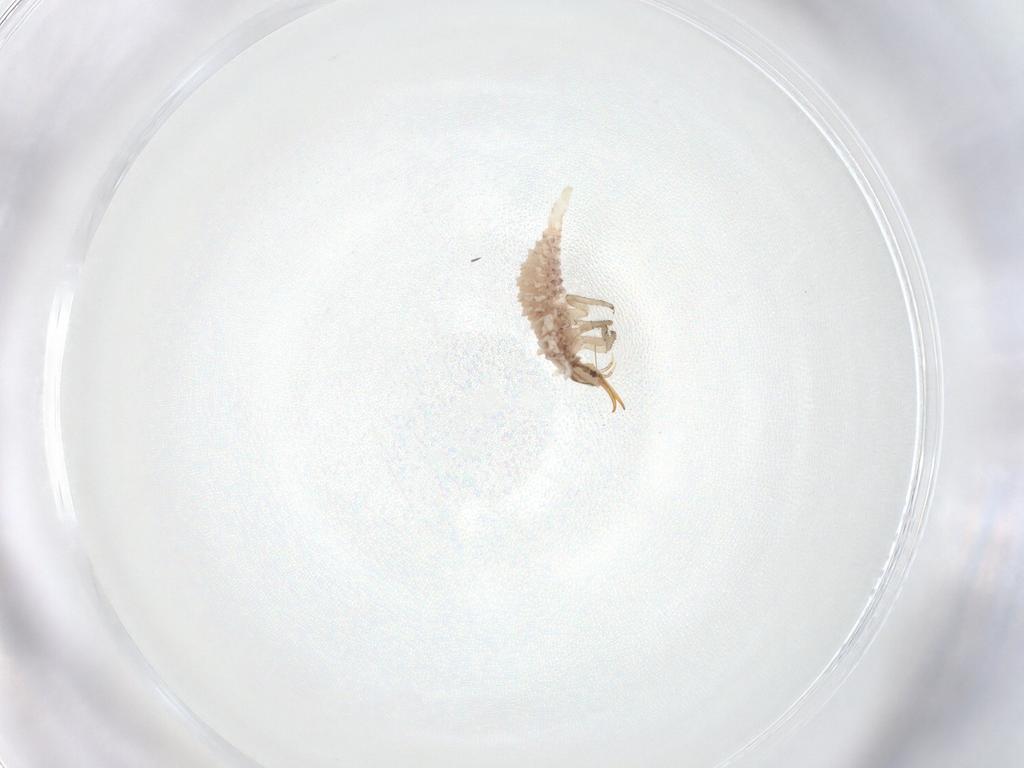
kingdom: Animalia
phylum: Arthropoda
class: Insecta
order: Neuroptera
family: Chrysopidae
